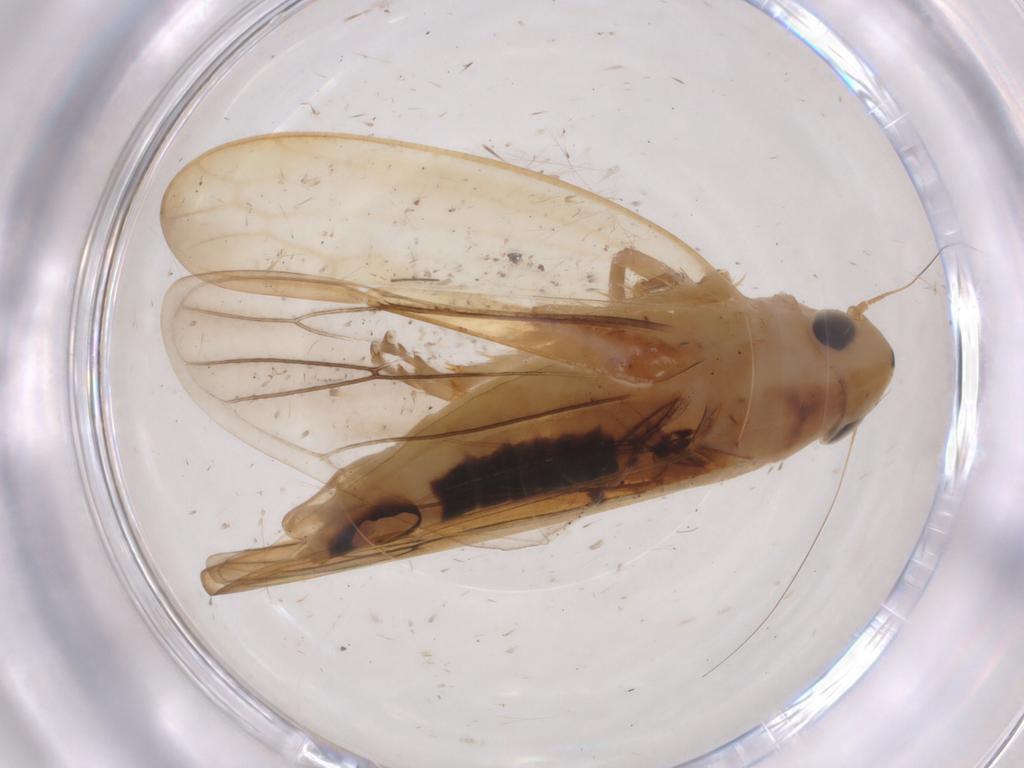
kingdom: Animalia
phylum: Arthropoda
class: Insecta
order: Hemiptera
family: Cicadellidae
